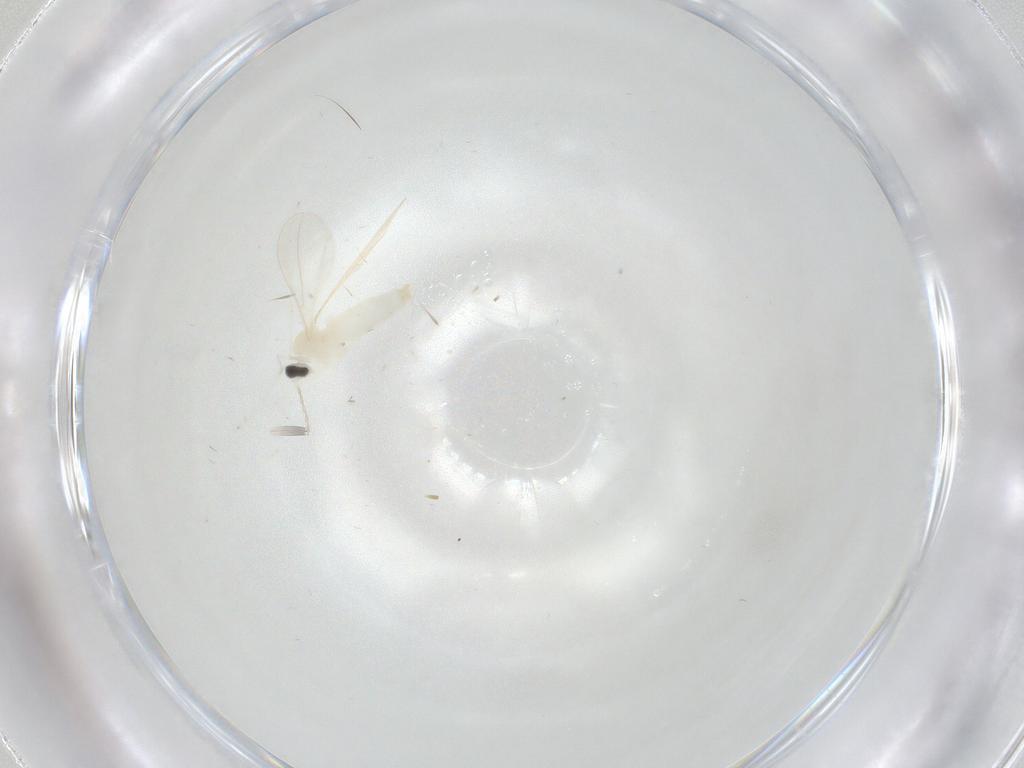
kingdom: Animalia
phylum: Arthropoda
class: Insecta
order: Diptera
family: Cecidomyiidae
